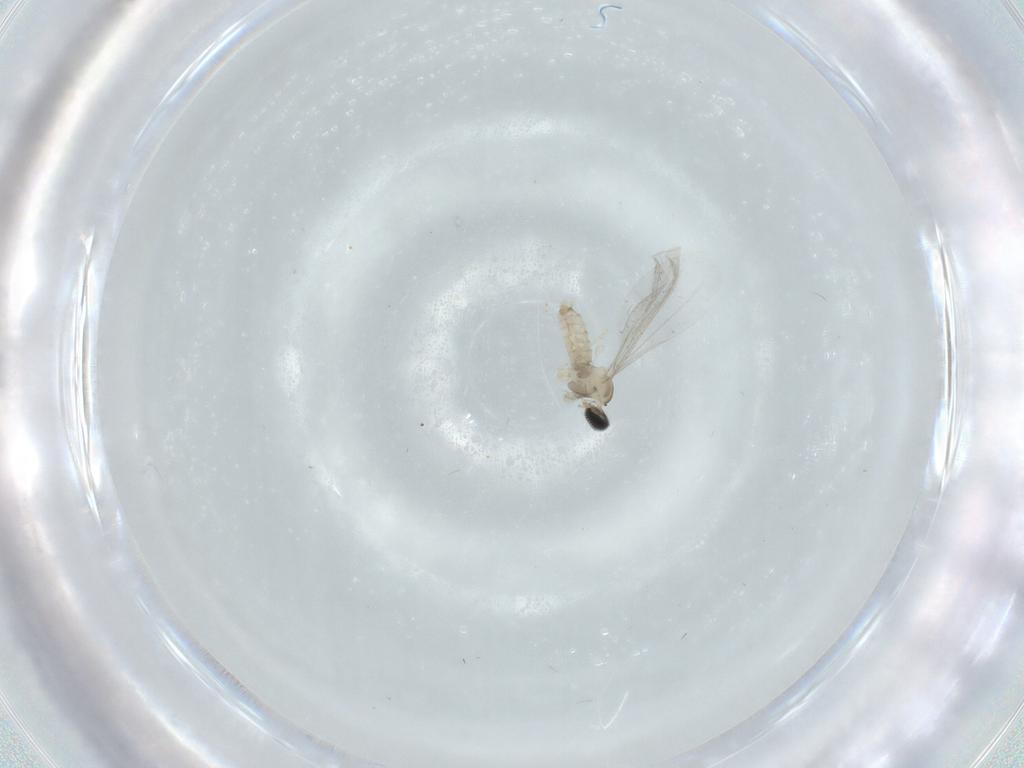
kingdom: Animalia
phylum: Arthropoda
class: Insecta
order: Diptera
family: Cecidomyiidae
